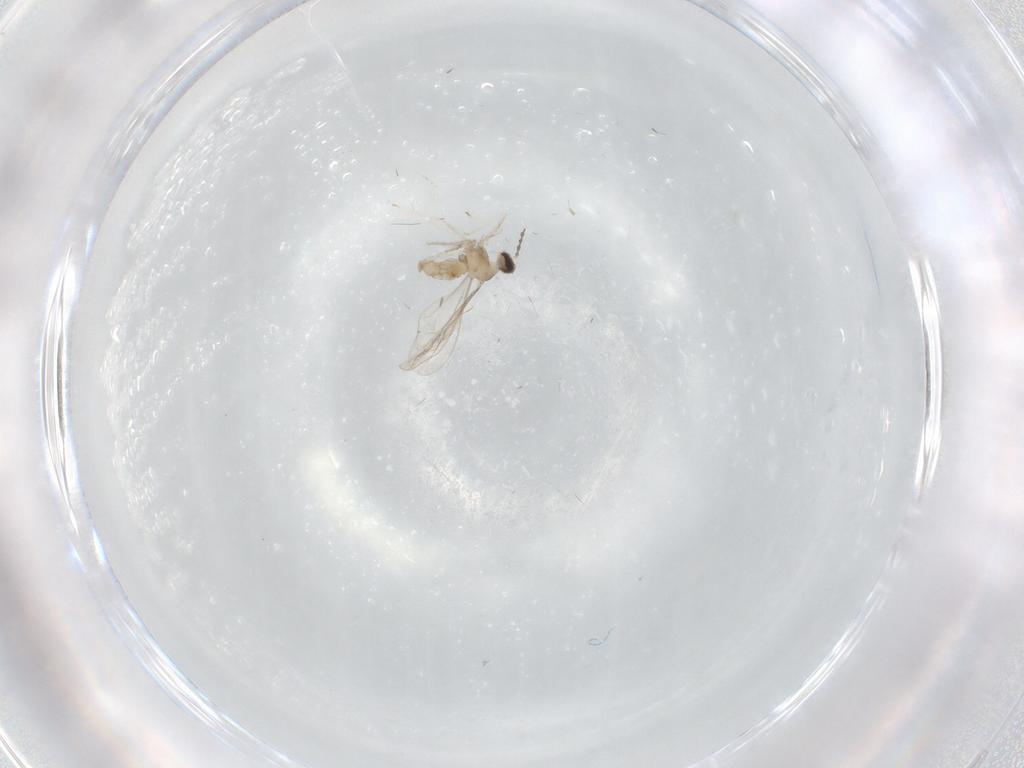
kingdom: Animalia
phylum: Arthropoda
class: Insecta
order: Diptera
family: Cecidomyiidae
